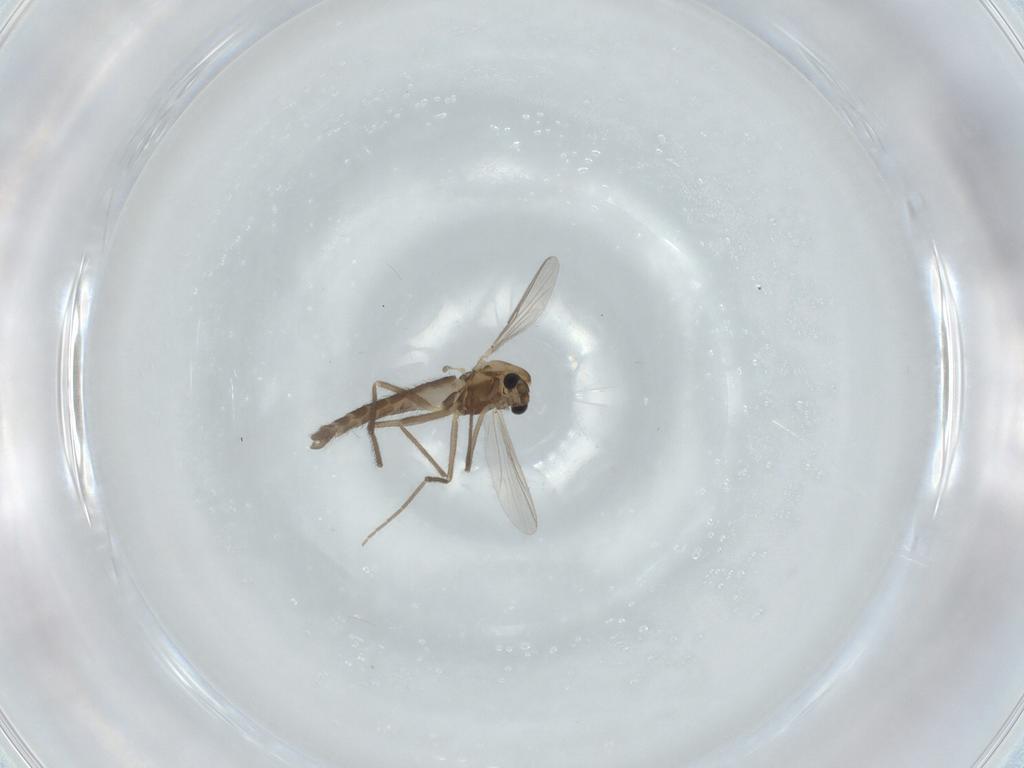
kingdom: Animalia
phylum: Arthropoda
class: Insecta
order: Diptera
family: Chironomidae
